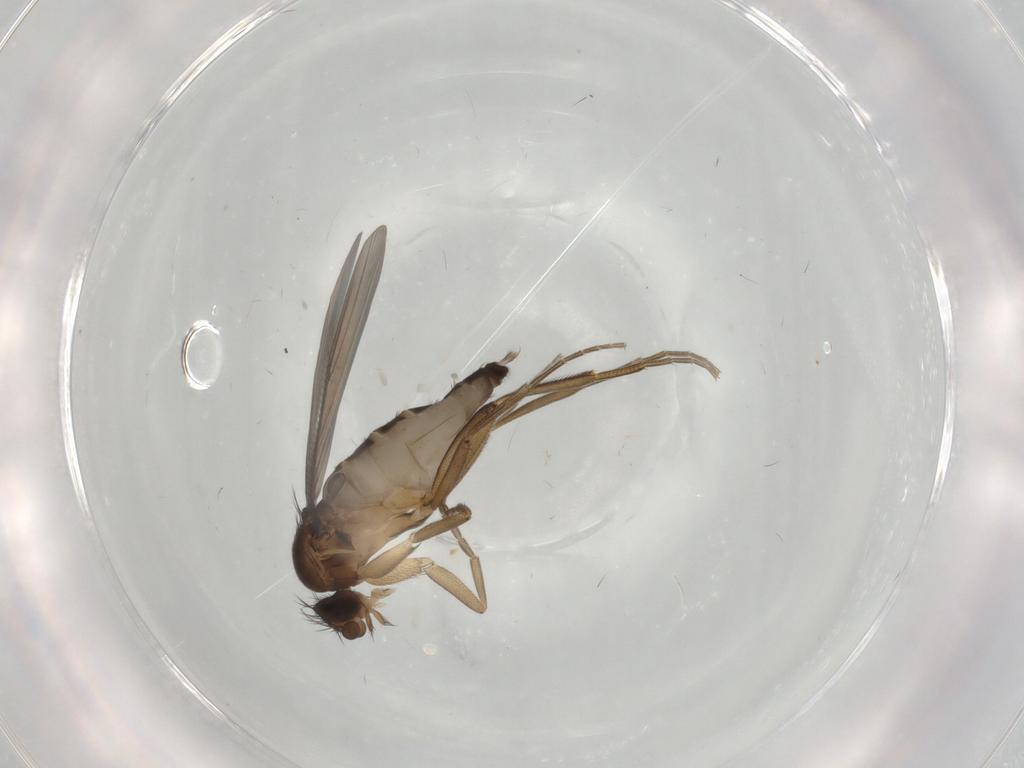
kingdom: Animalia
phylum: Arthropoda
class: Insecta
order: Diptera
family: Phoridae
